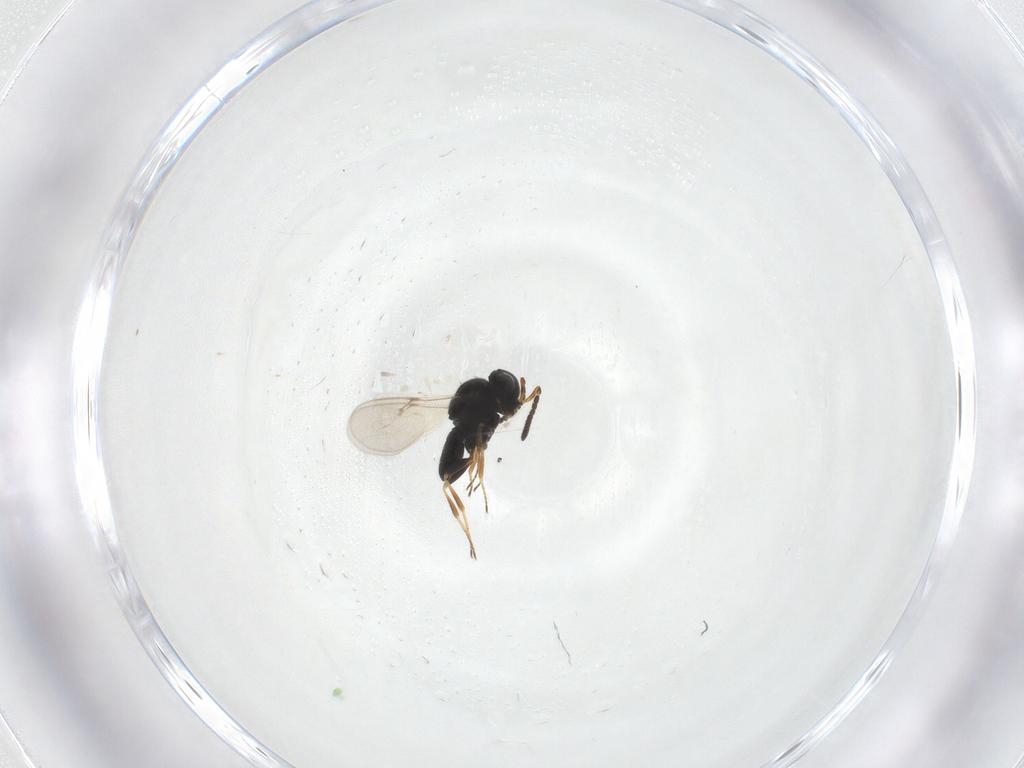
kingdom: Animalia
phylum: Arthropoda
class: Insecta
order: Hymenoptera
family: Scelionidae
